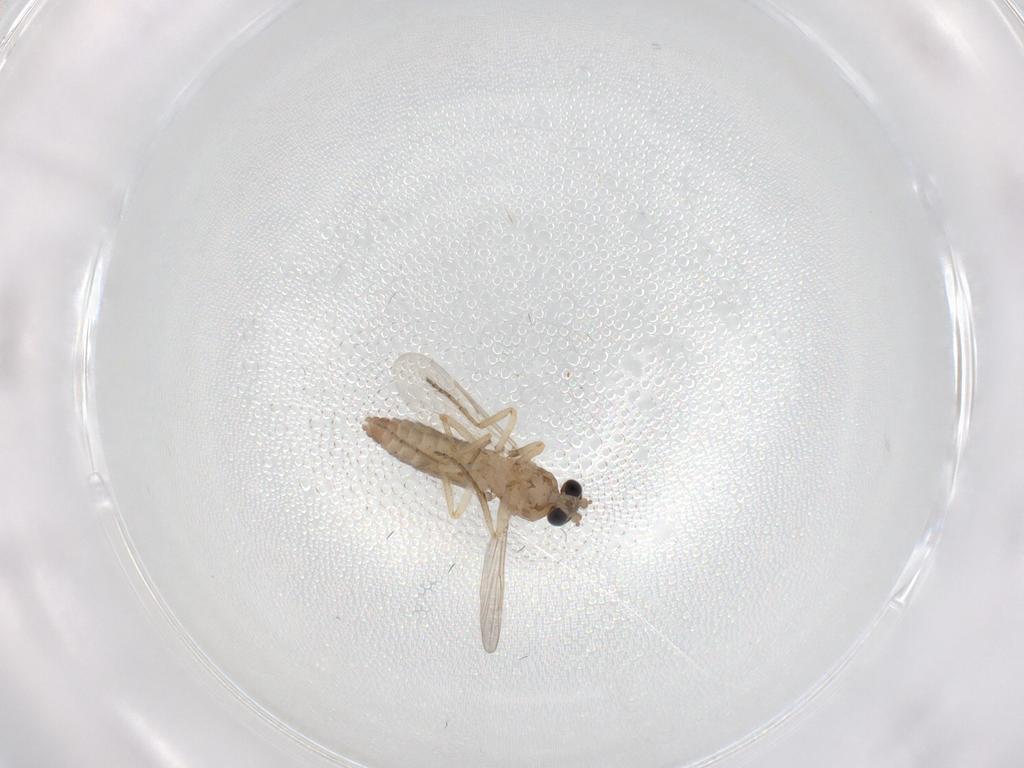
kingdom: Animalia
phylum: Arthropoda
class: Insecta
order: Diptera
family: Ceratopogonidae
